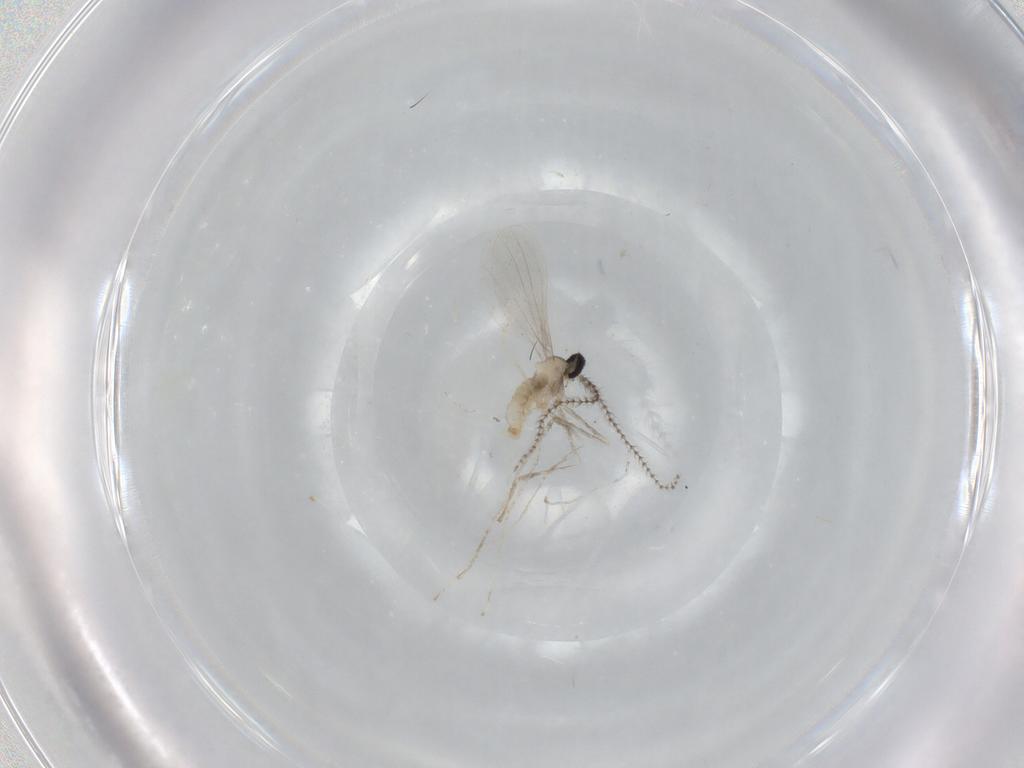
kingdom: Animalia
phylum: Arthropoda
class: Insecta
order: Diptera
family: Cecidomyiidae
